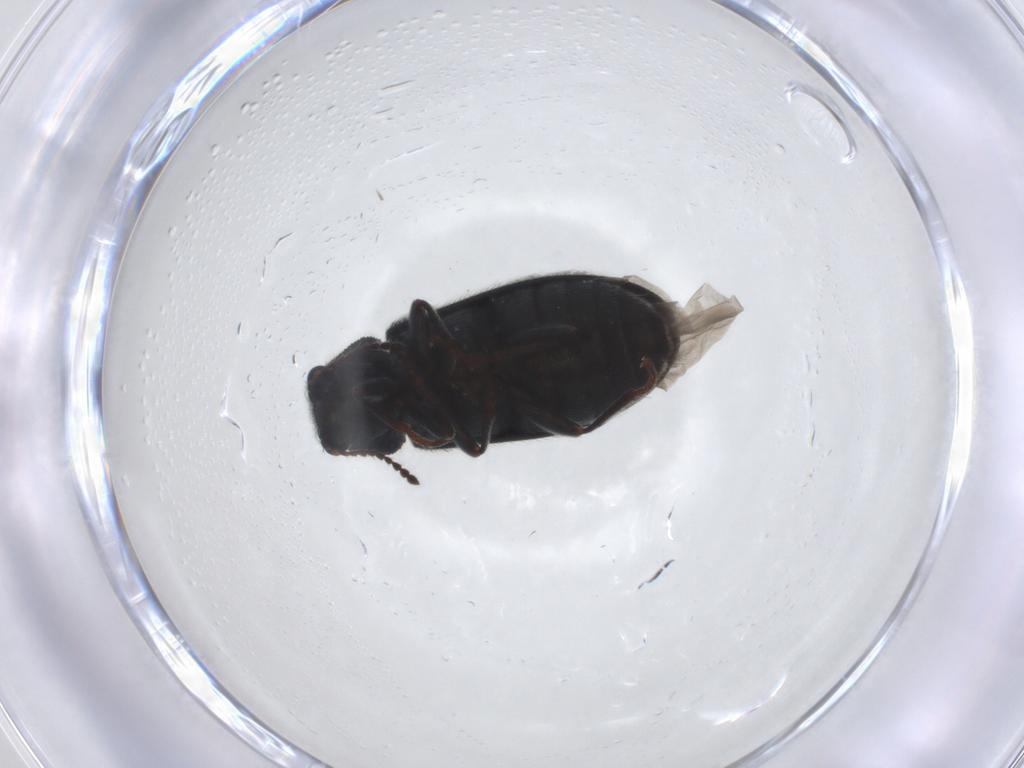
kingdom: Animalia
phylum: Arthropoda
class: Insecta
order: Coleoptera
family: Melyridae
